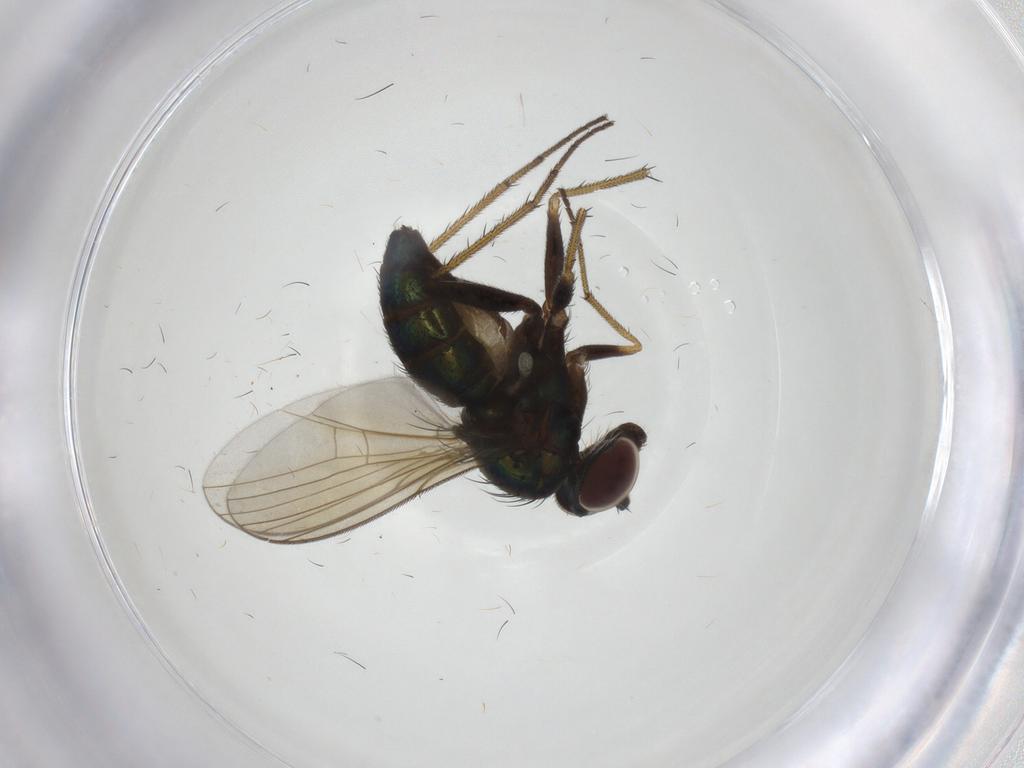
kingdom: Animalia
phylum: Arthropoda
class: Insecta
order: Diptera
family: Dolichopodidae
